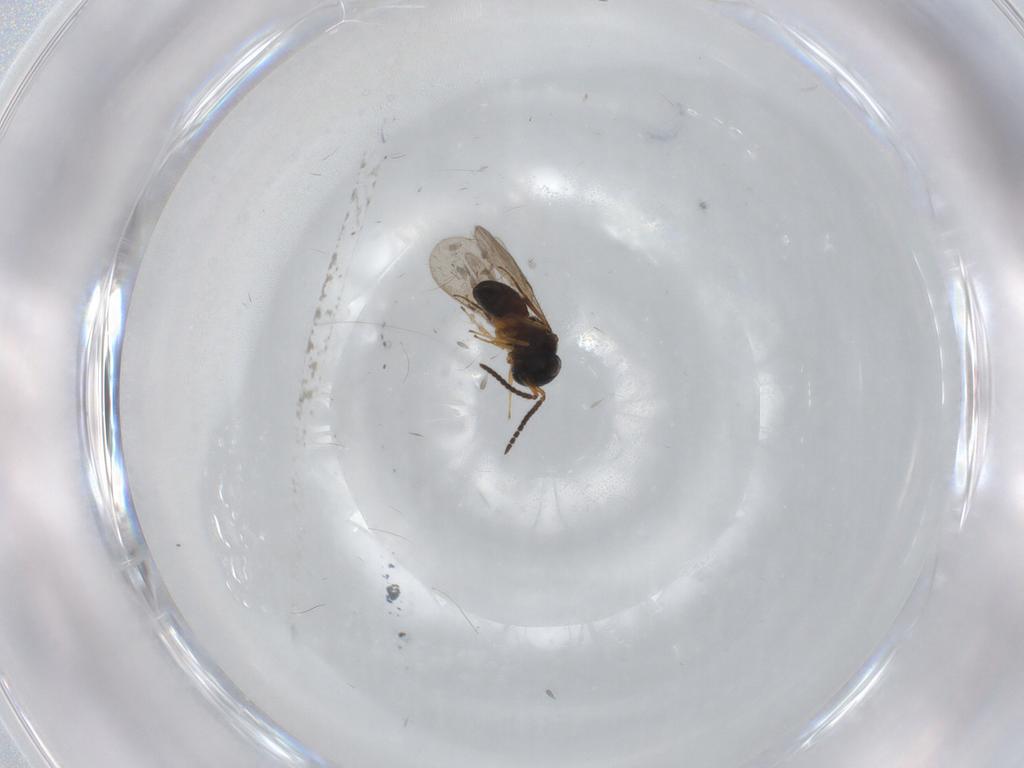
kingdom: Animalia
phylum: Arthropoda
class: Insecta
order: Hymenoptera
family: Scelionidae
